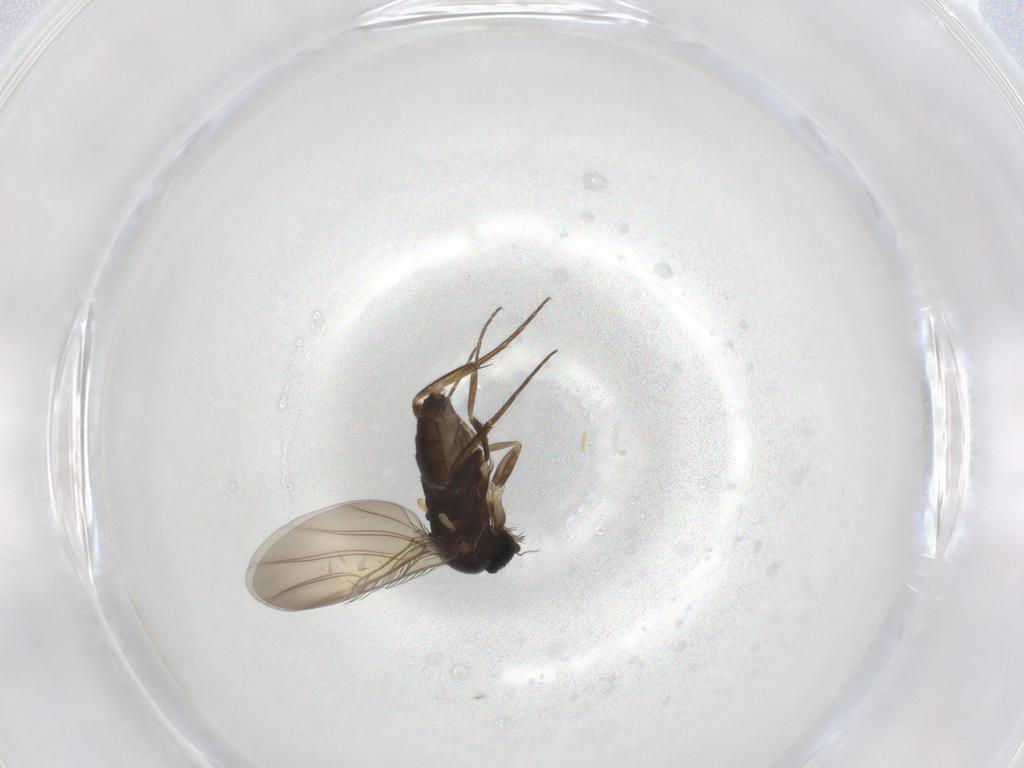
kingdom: Animalia
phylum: Arthropoda
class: Insecta
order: Diptera
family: Phoridae
